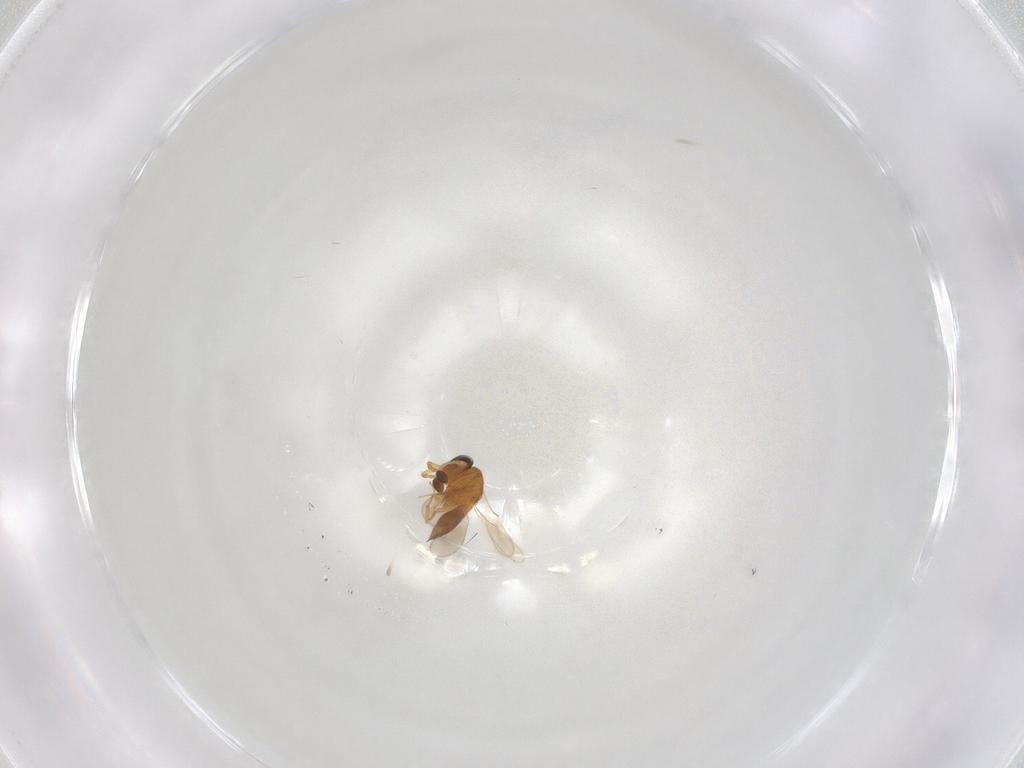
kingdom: Animalia
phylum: Arthropoda
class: Insecta
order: Hymenoptera
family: Scelionidae
